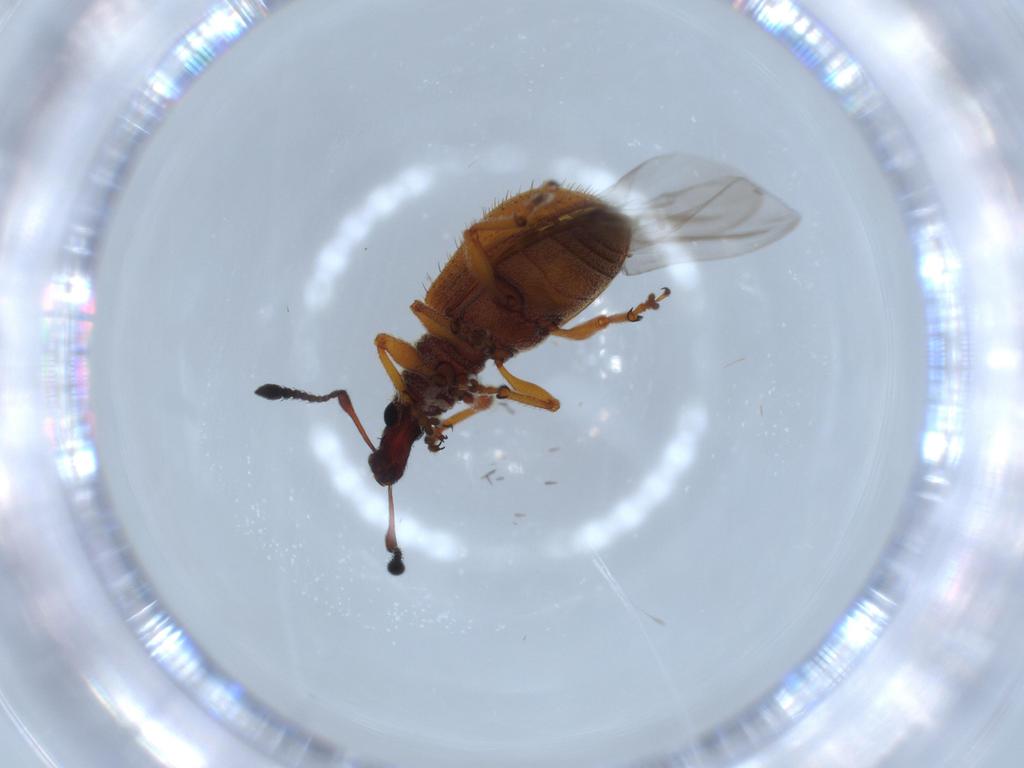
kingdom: Animalia
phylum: Arthropoda
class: Insecta
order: Coleoptera
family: Curculionidae
